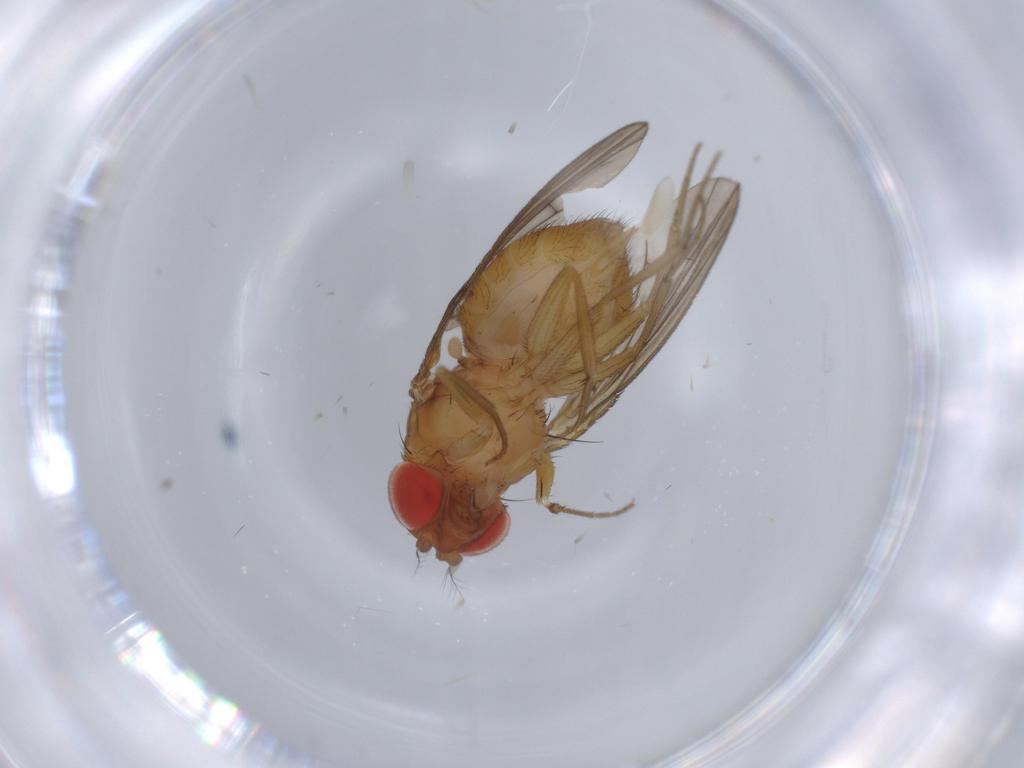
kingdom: Animalia
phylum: Arthropoda
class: Insecta
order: Diptera
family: Drosophilidae
